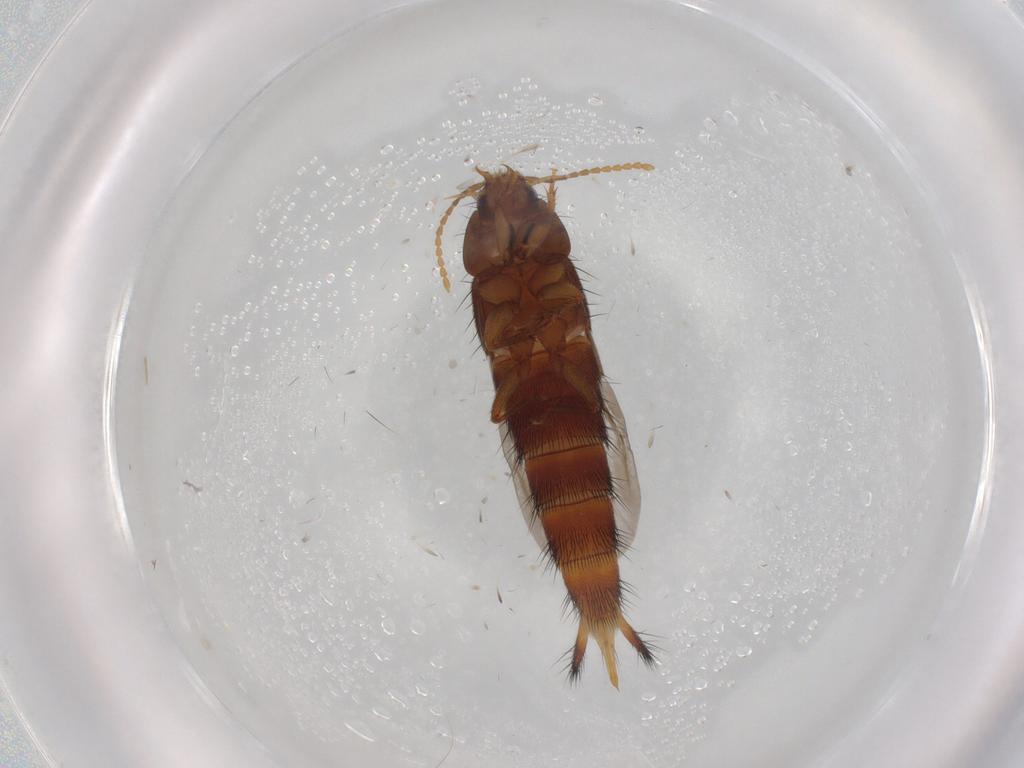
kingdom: Animalia
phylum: Arthropoda
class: Insecta
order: Coleoptera
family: Staphylinidae
